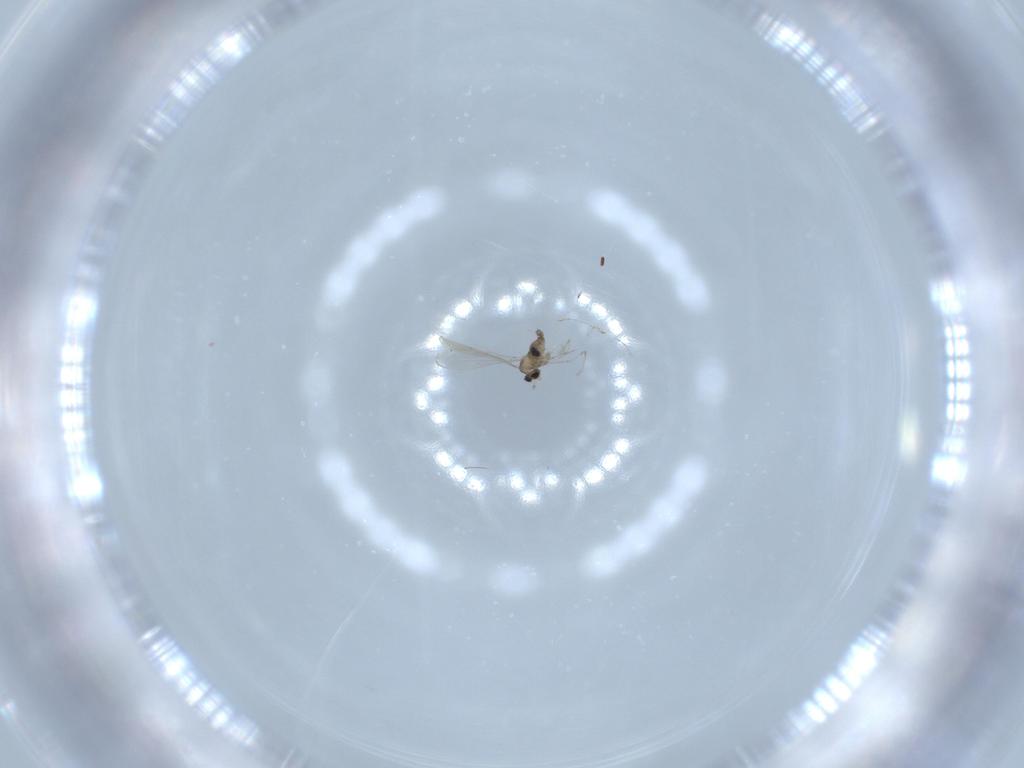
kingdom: Animalia
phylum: Arthropoda
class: Insecta
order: Diptera
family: Cecidomyiidae
